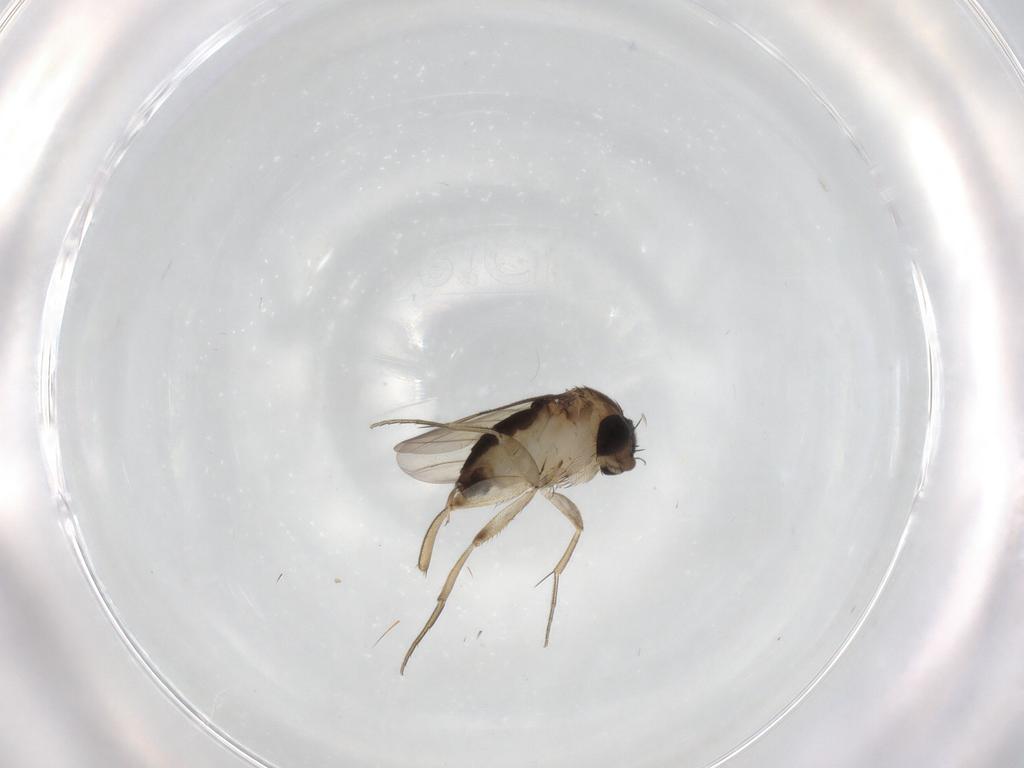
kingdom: Animalia
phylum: Arthropoda
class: Insecta
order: Diptera
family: Phoridae
